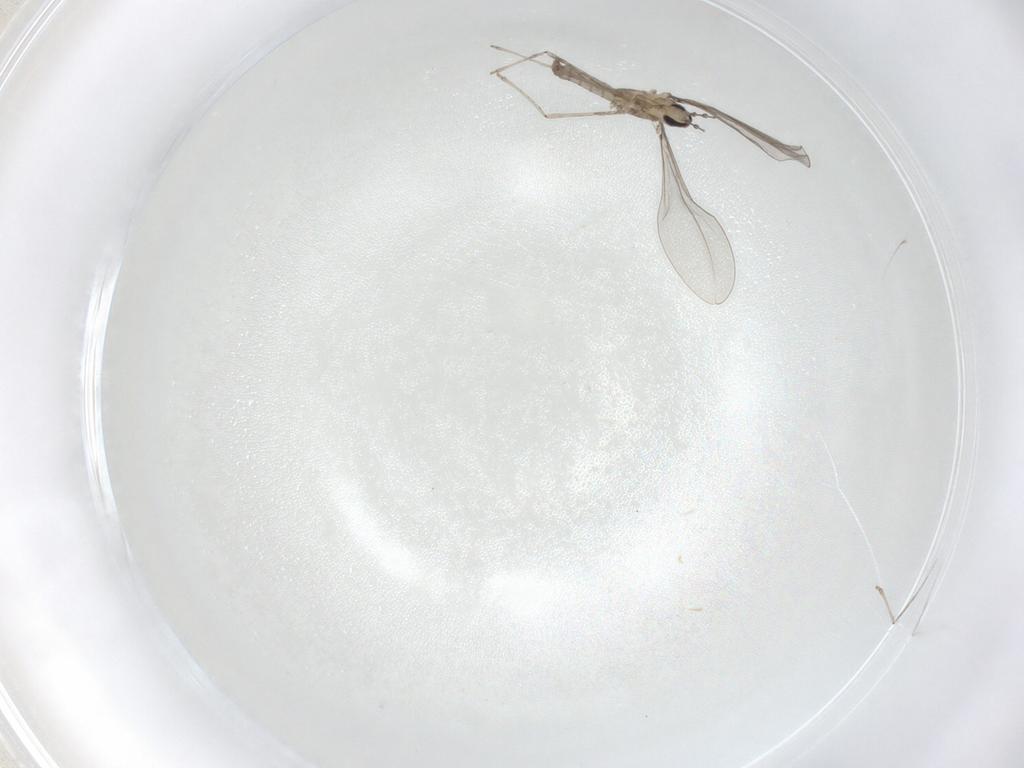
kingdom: Animalia
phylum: Arthropoda
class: Insecta
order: Diptera
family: Cecidomyiidae
